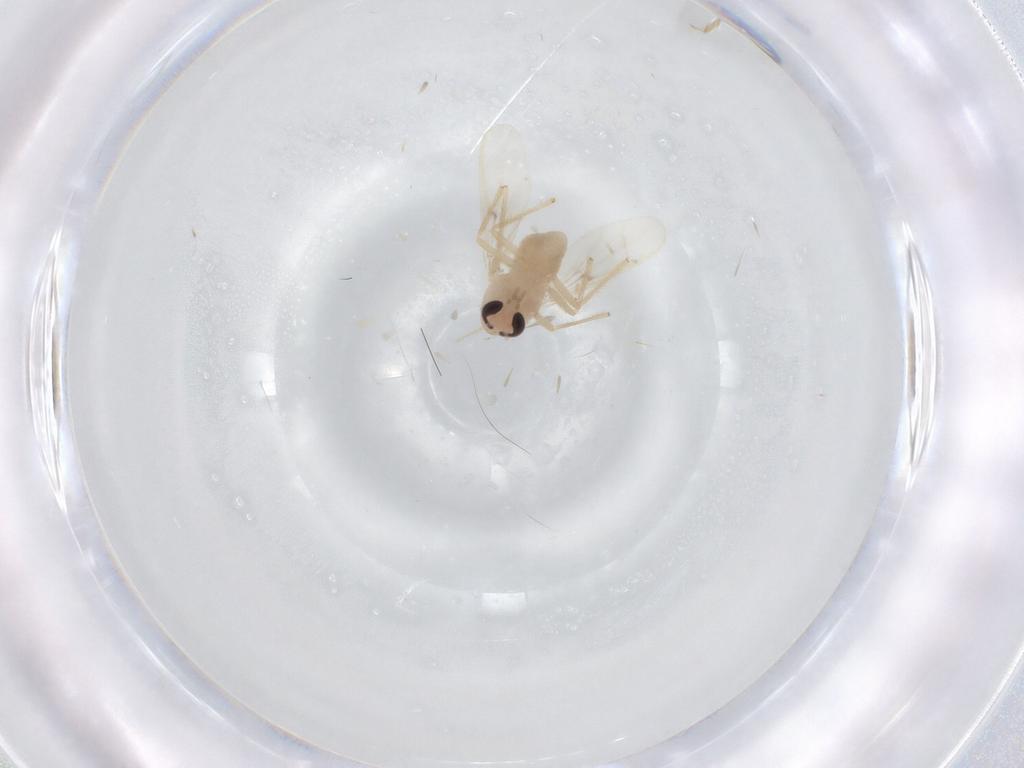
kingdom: Animalia
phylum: Arthropoda
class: Insecta
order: Diptera
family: Chironomidae
